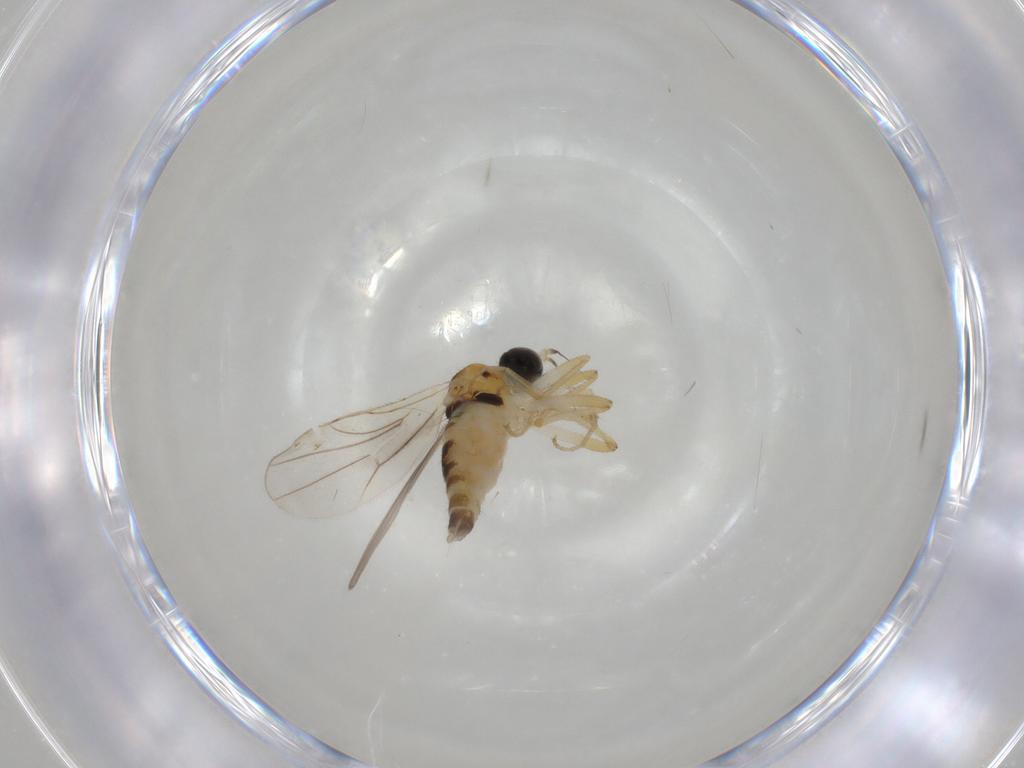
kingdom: Animalia
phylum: Arthropoda
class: Insecta
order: Diptera
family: Hybotidae
